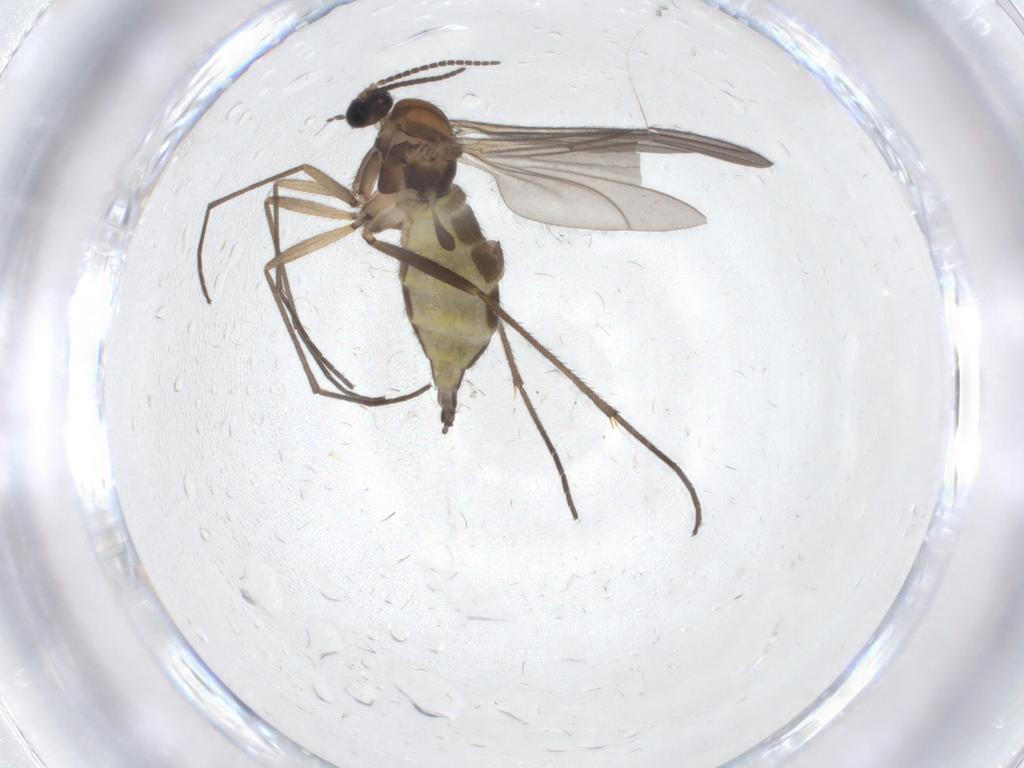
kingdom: Animalia
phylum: Arthropoda
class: Insecta
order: Diptera
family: Sciaridae
